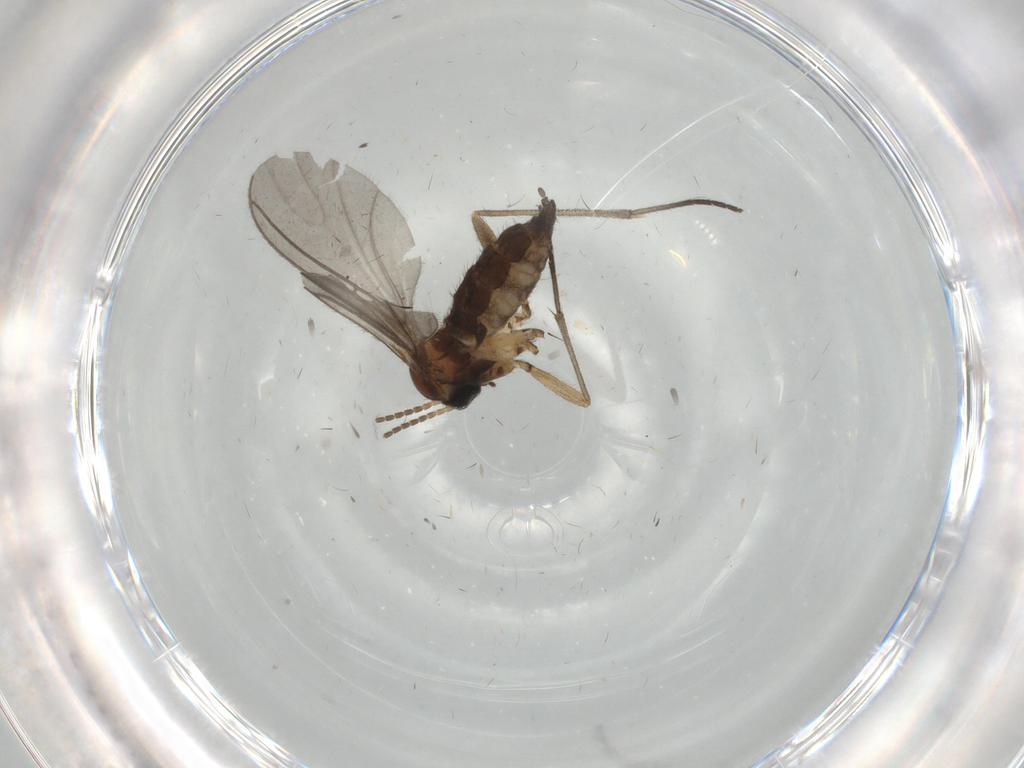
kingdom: Animalia
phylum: Arthropoda
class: Insecta
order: Diptera
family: Sciaridae
